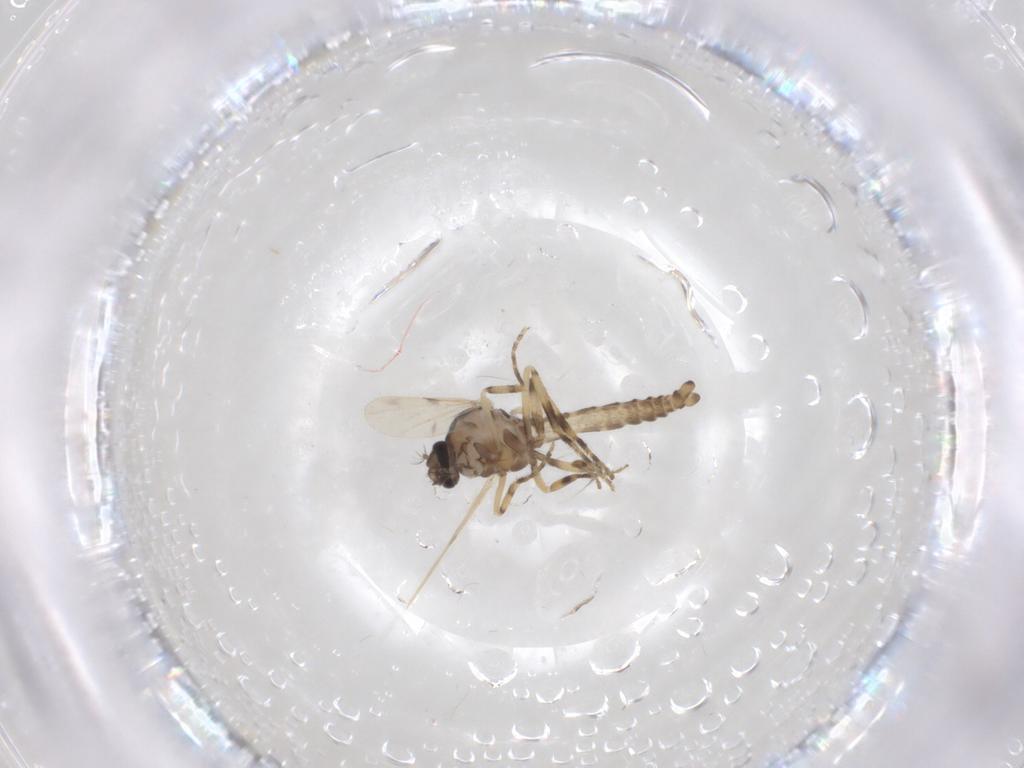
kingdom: Animalia
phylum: Arthropoda
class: Insecta
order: Diptera
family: Ceratopogonidae
